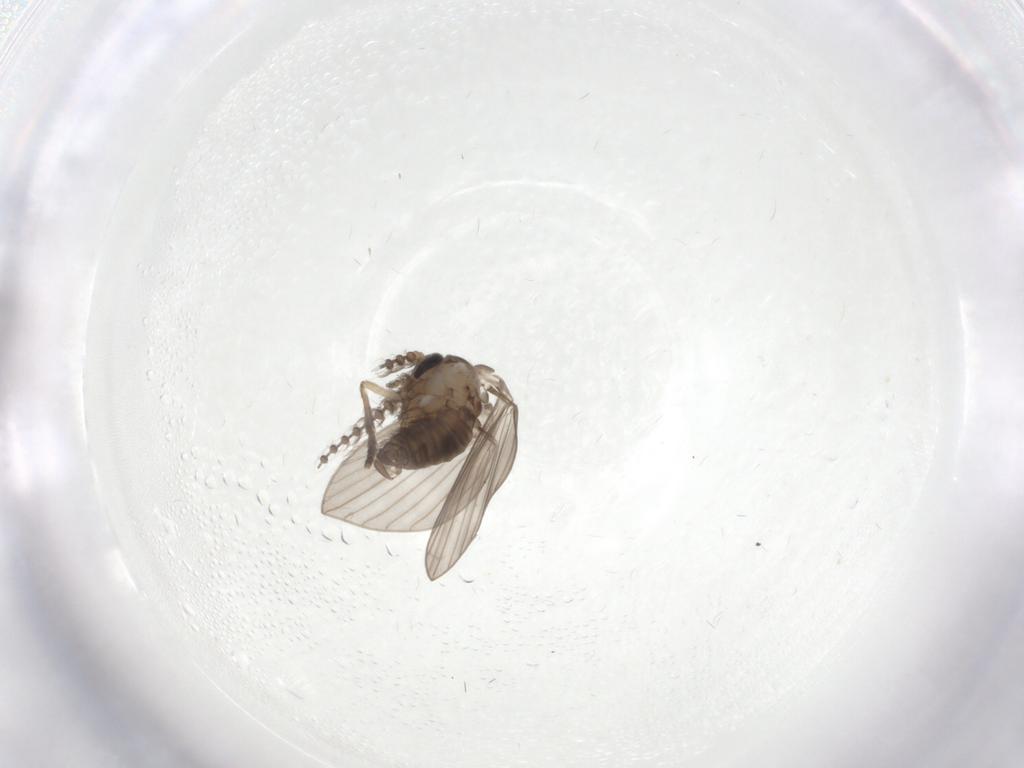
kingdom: Animalia
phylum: Arthropoda
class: Insecta
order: Diptera
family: Psychodidae
